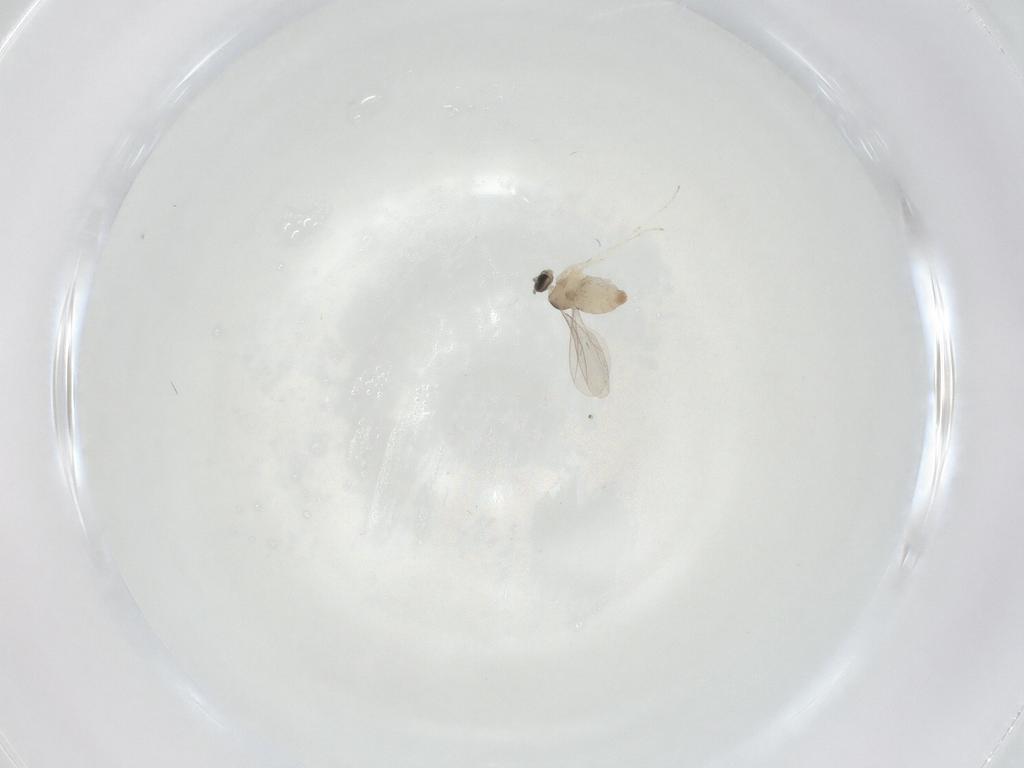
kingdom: Animalia
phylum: Arthropoda
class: Insecta
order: Diptera
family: Cecidomyiidae
